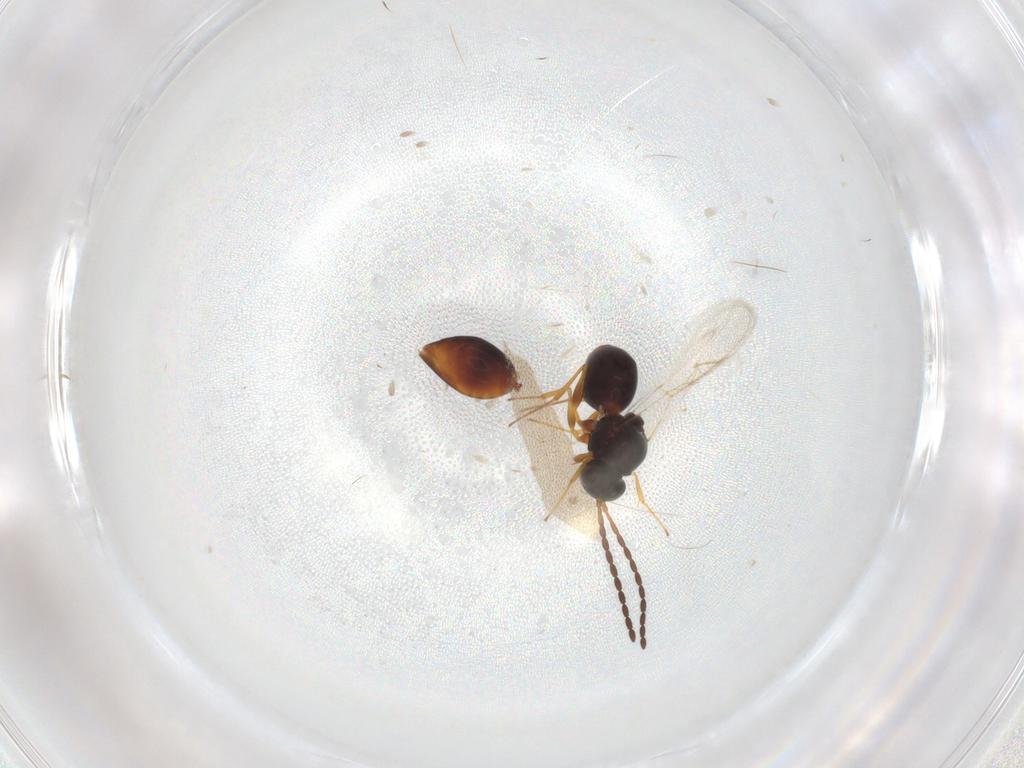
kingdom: Animalia
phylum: Arthropoda
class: Insecta
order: Hymenoptera
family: Figitidae
